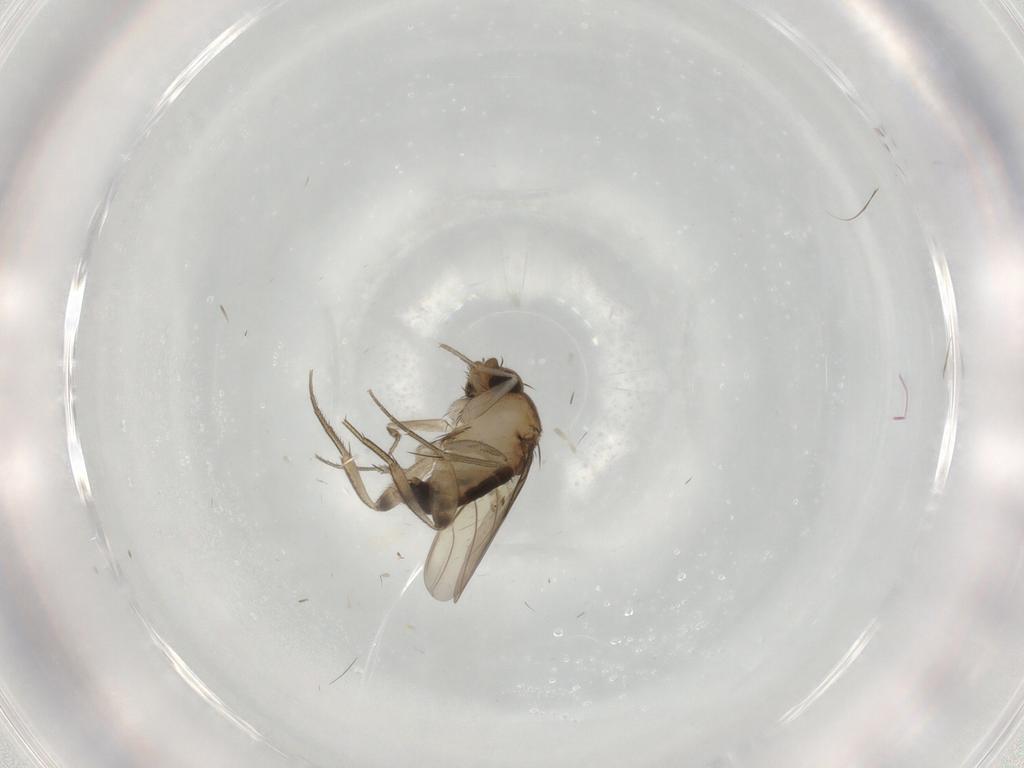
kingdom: Animalia
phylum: Arthropoda
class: Insecta
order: Diptera
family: Phoridae
